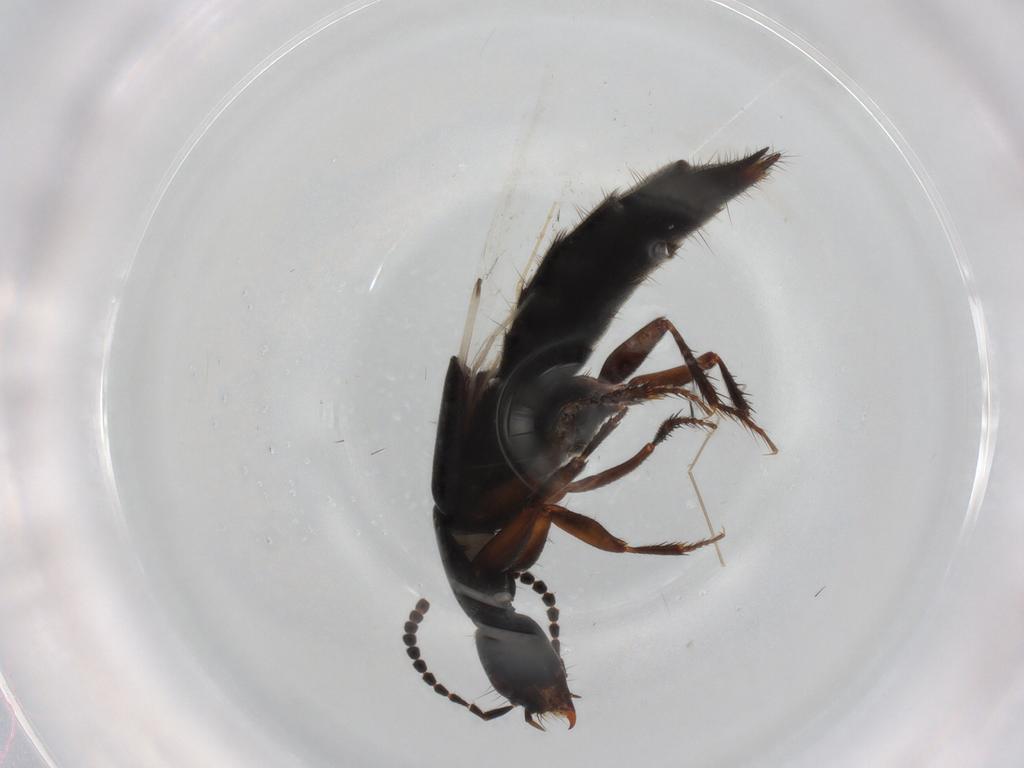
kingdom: Animalia
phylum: Arthropoda
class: Insecta
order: Coleoptera
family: Staphylinidae
